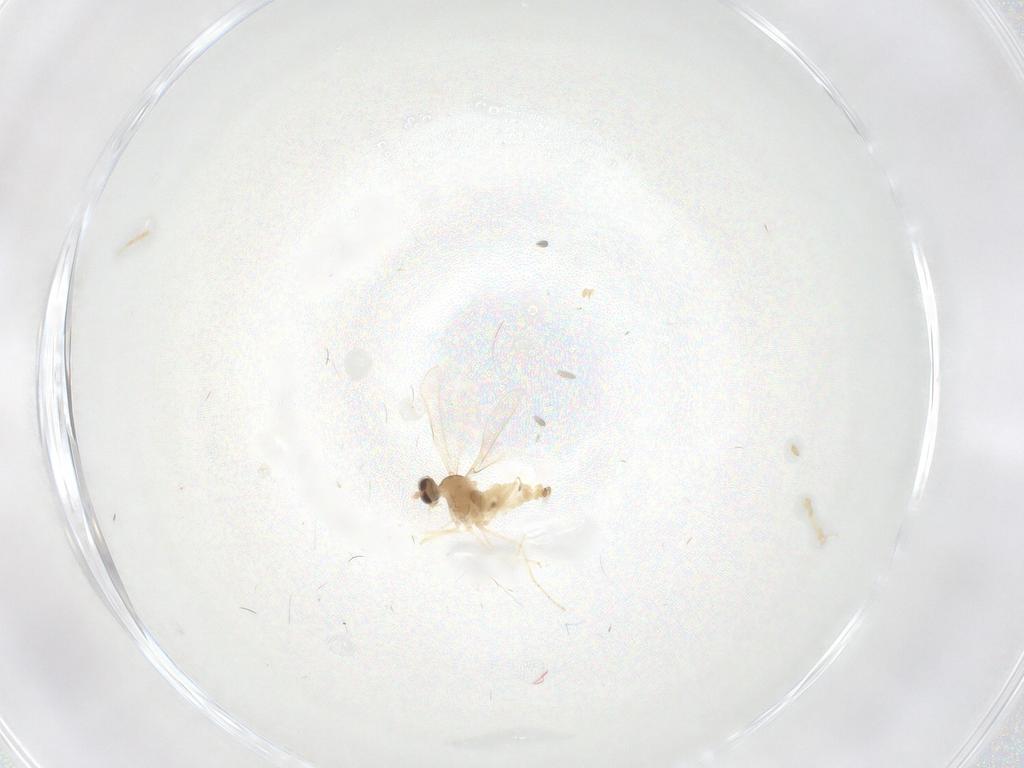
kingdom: Animalia
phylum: Arthropoda
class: Insecta
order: Diptera
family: Cecidomyiidae
